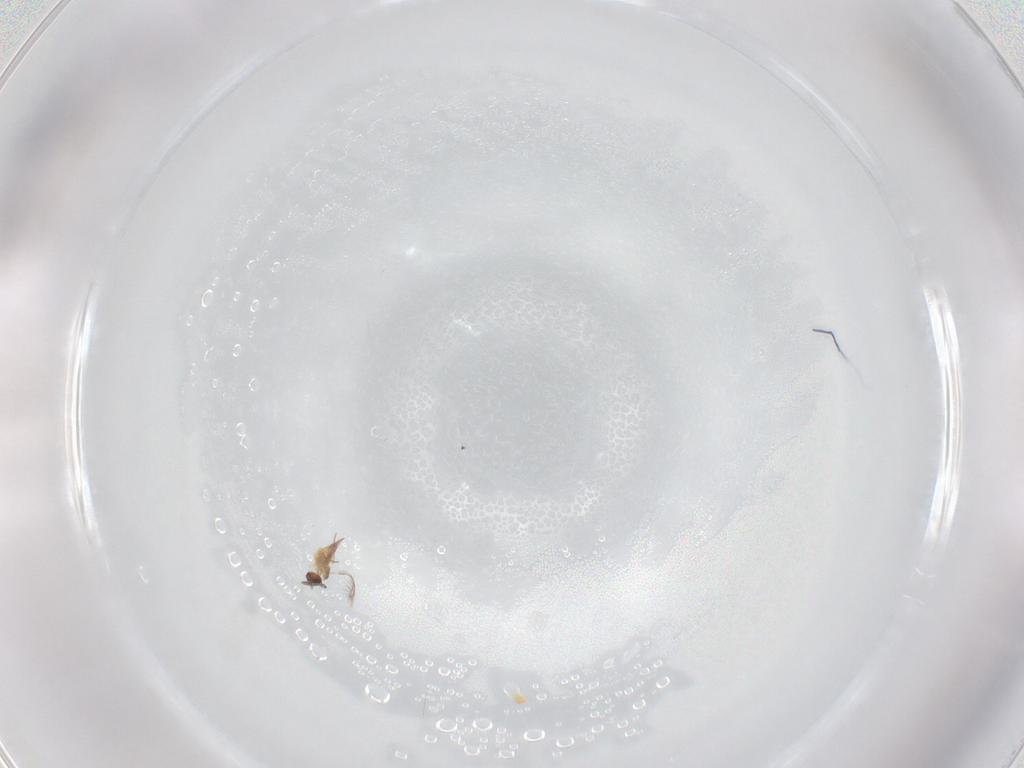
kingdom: Animalia
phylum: Arthropoda
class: Insecta
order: Hymenoptera
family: Mymaridae
